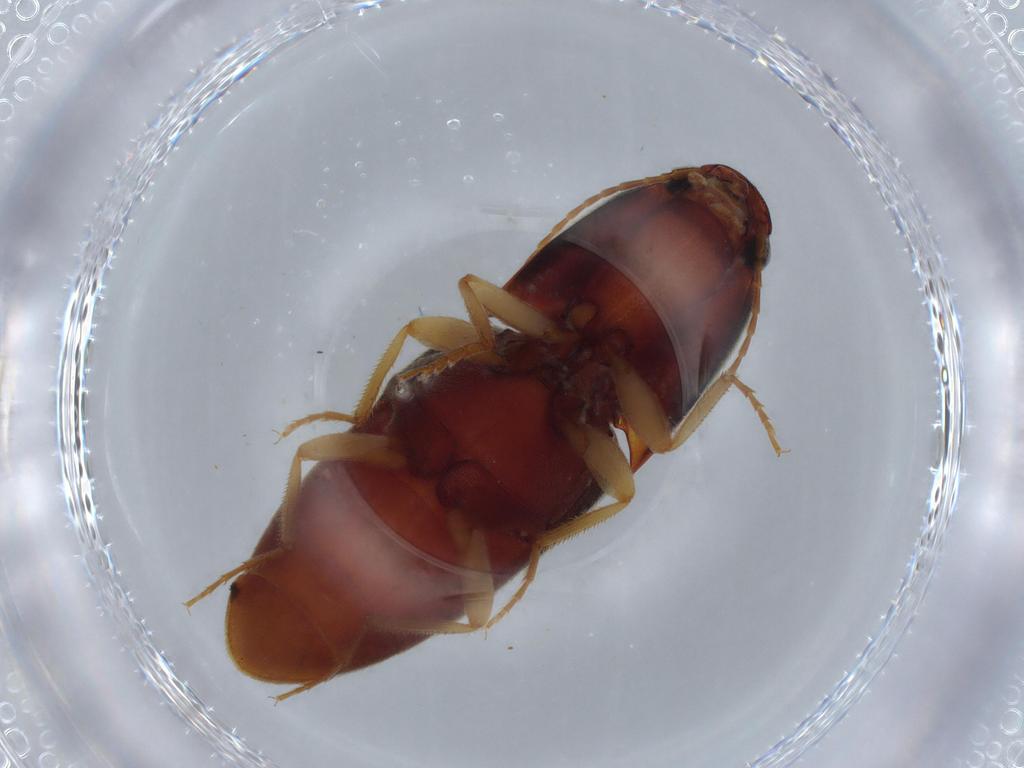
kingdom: Animalia
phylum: Arthropoda
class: Insecta
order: Coleoptera
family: Elateridae
